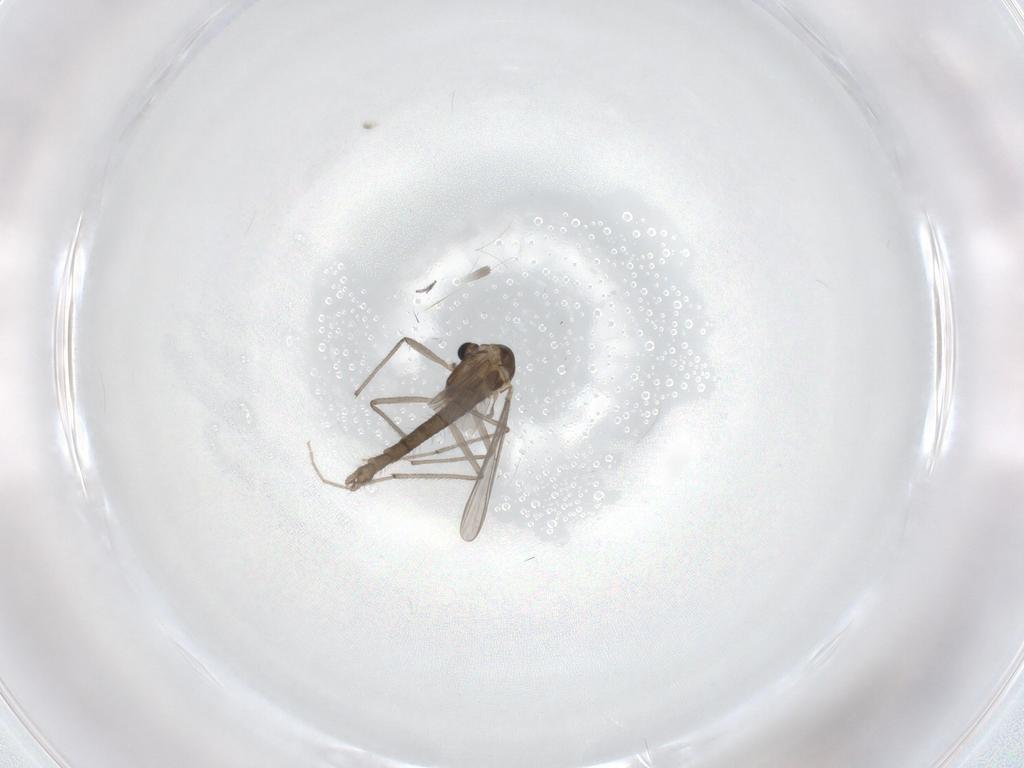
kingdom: Animalia
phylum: Arthropoda
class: Insecta
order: Diptera
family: Chironomidae
